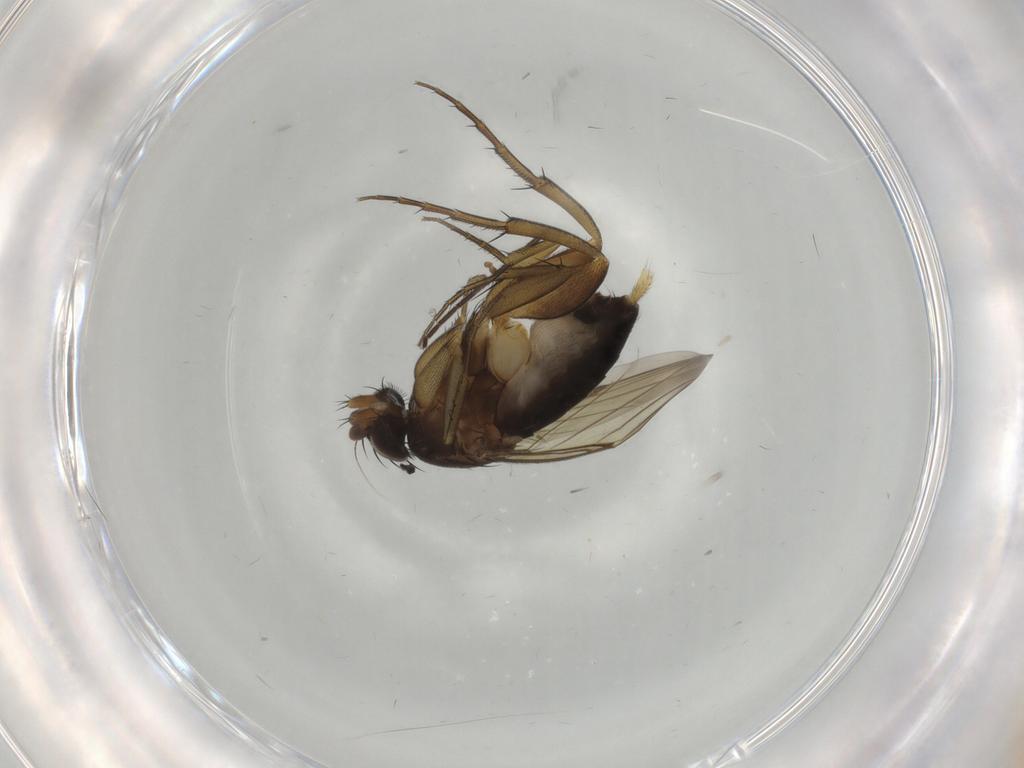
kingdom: Animalia
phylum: Arthropoda
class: Insecta
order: Diptera
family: Phoridae
